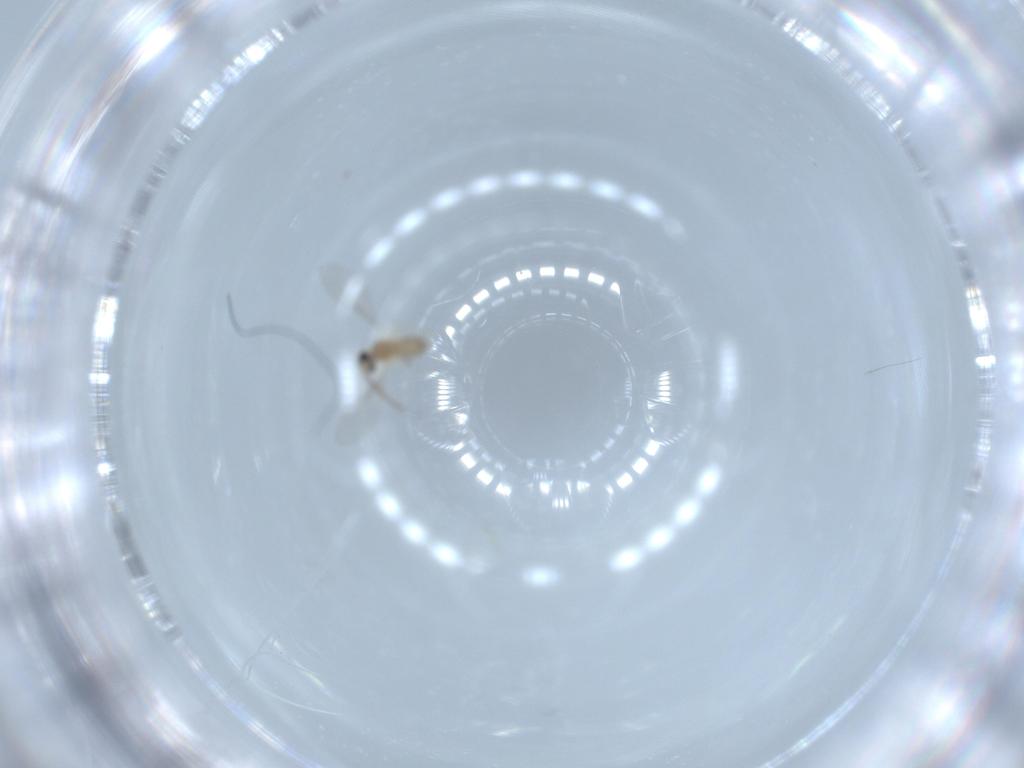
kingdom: Animalia
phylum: Arthropoda
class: Insecta
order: Diptera
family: Cecidomyiidae
